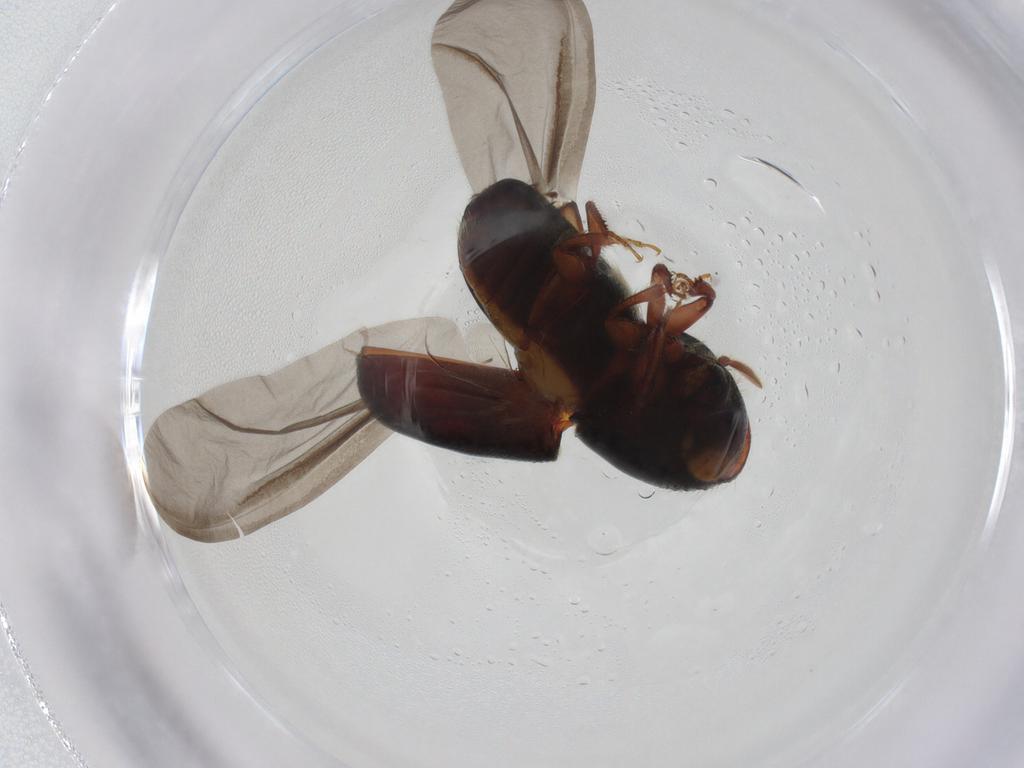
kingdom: Animalia
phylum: Arthropoda
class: Insecta
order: Coleoptera
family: Curculionidae
